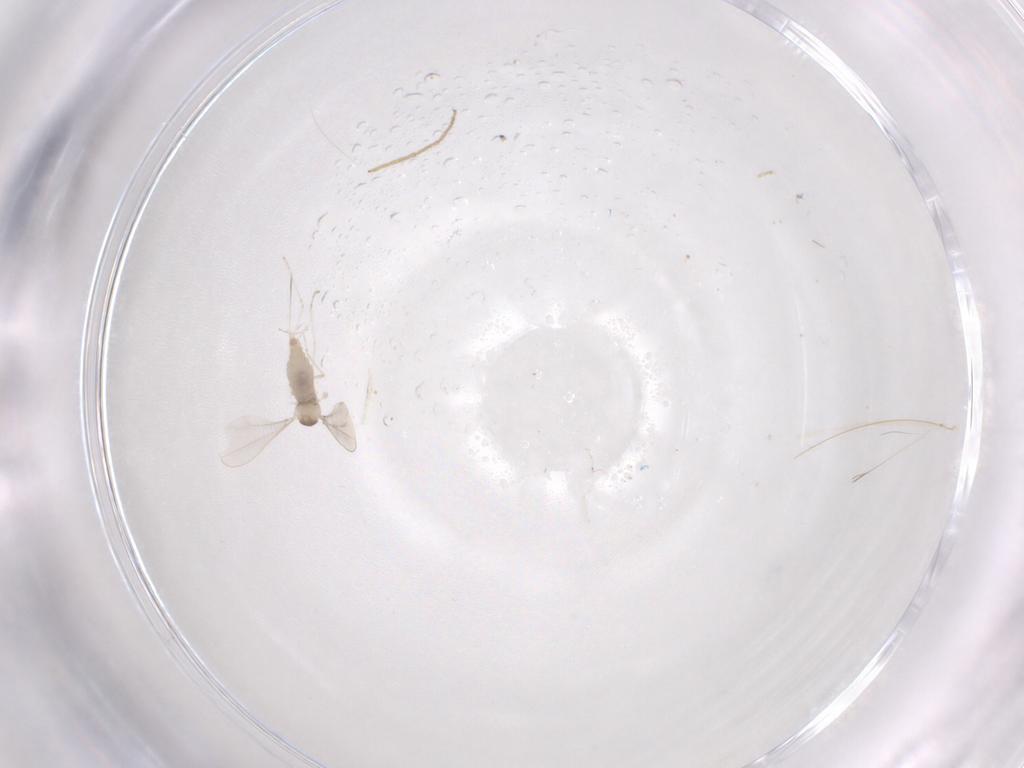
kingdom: Animalia
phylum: Arthropoda
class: Insecta
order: Diptera
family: Cecidomyiidae
